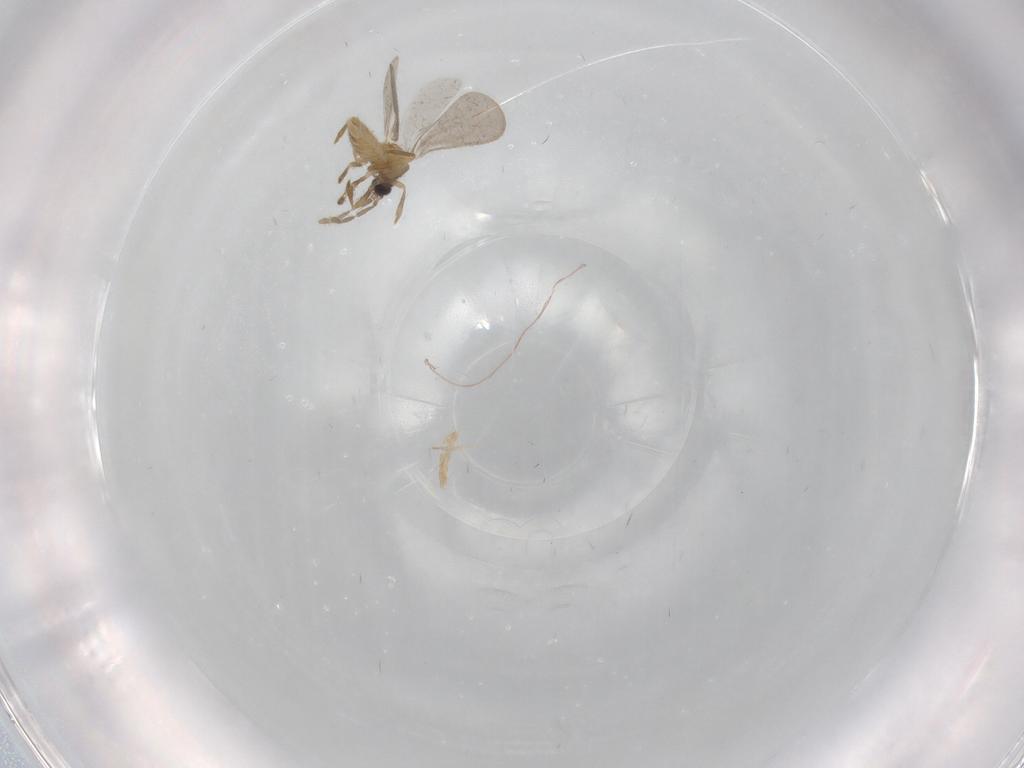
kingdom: Animalia
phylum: Arthropoda
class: Insecta
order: Hemiptera
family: Enicocephalidae
